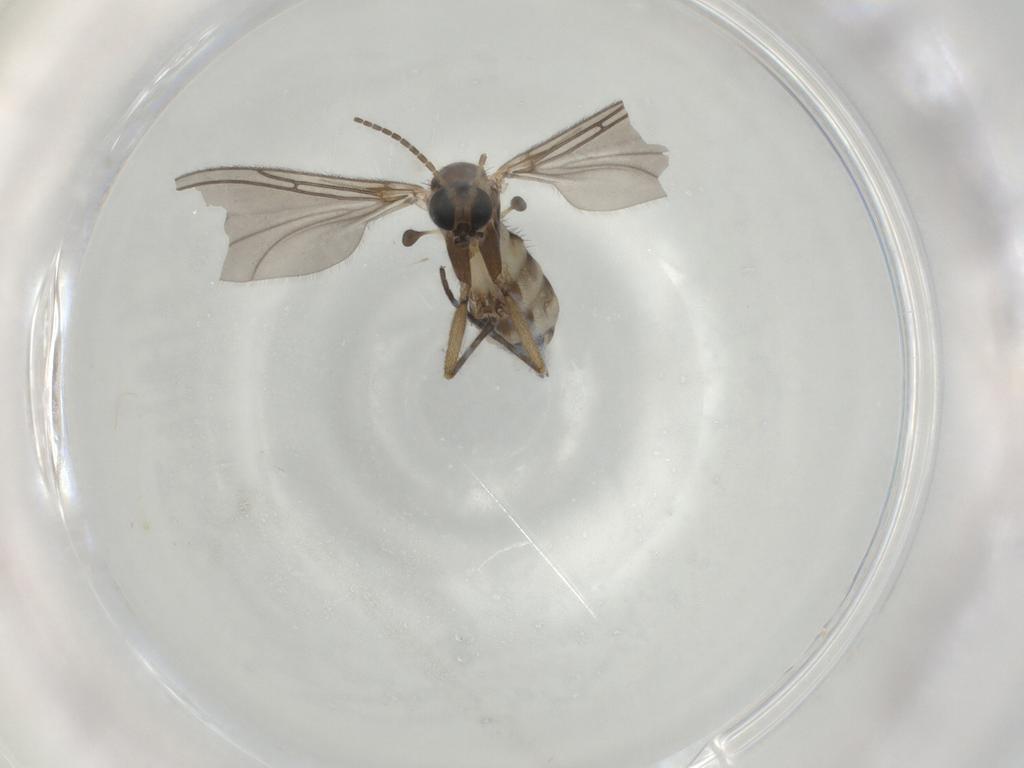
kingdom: Animalia
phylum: Arthropoda
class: Insecta
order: Diptera
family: Sciaridae
